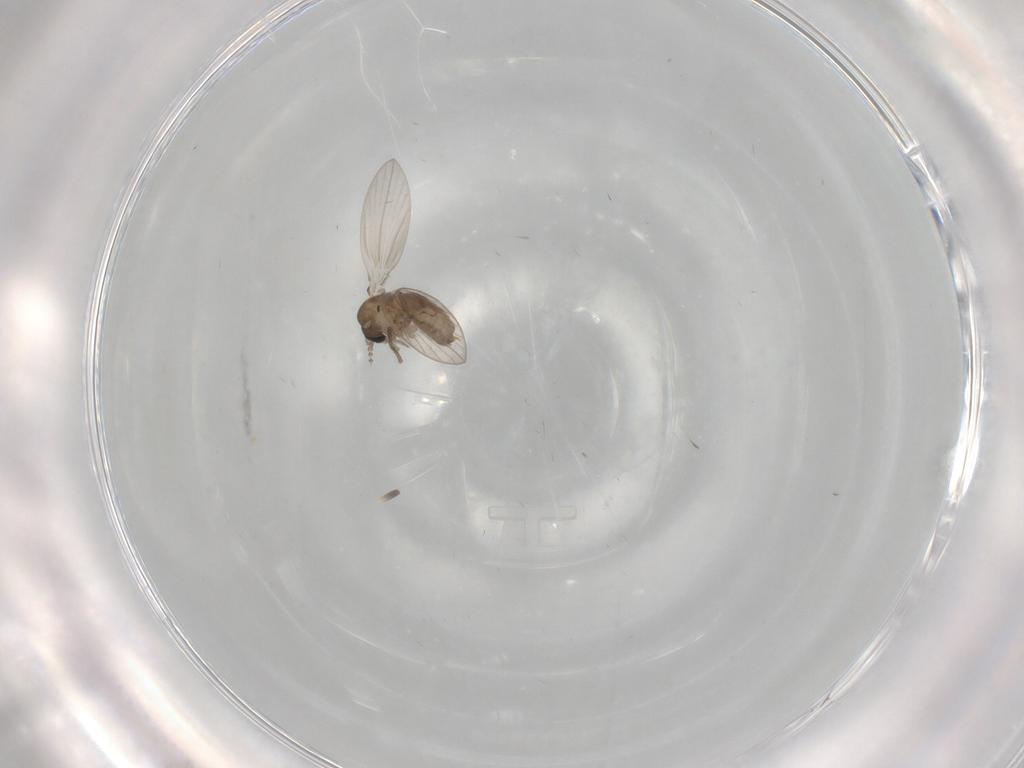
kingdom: Animalia
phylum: Arthropoda
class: Insecta
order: Diptera
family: Psychodidae
